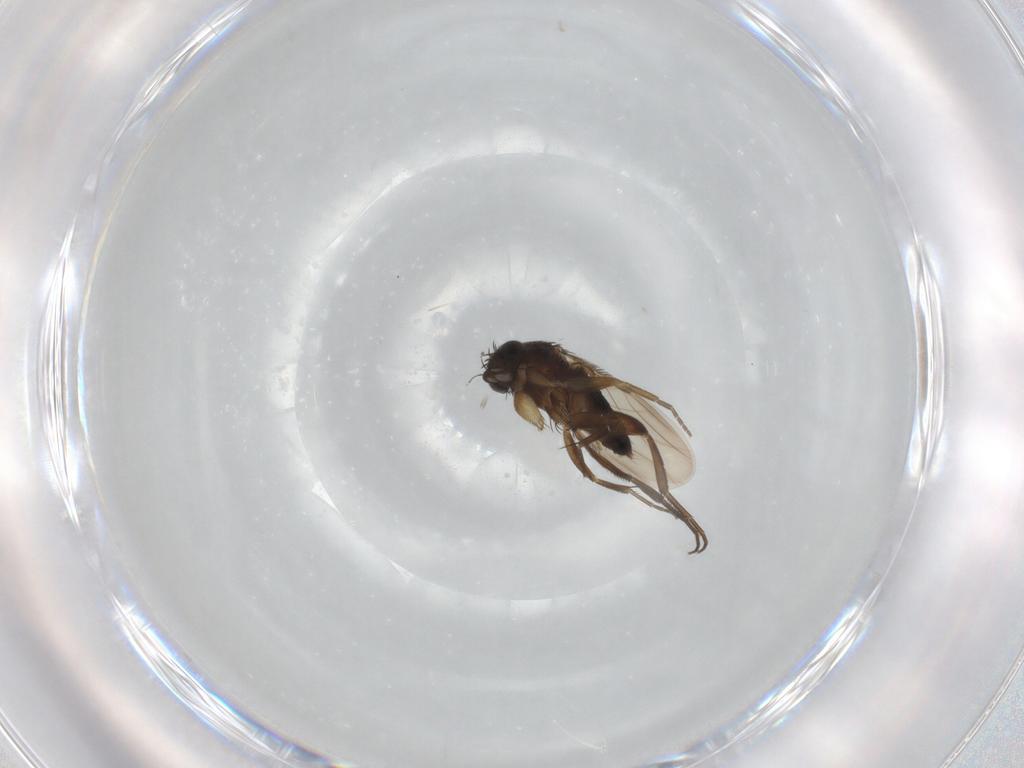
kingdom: Animalia
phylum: Arthropoda
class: Insecta
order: Diptera
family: Phoridae
